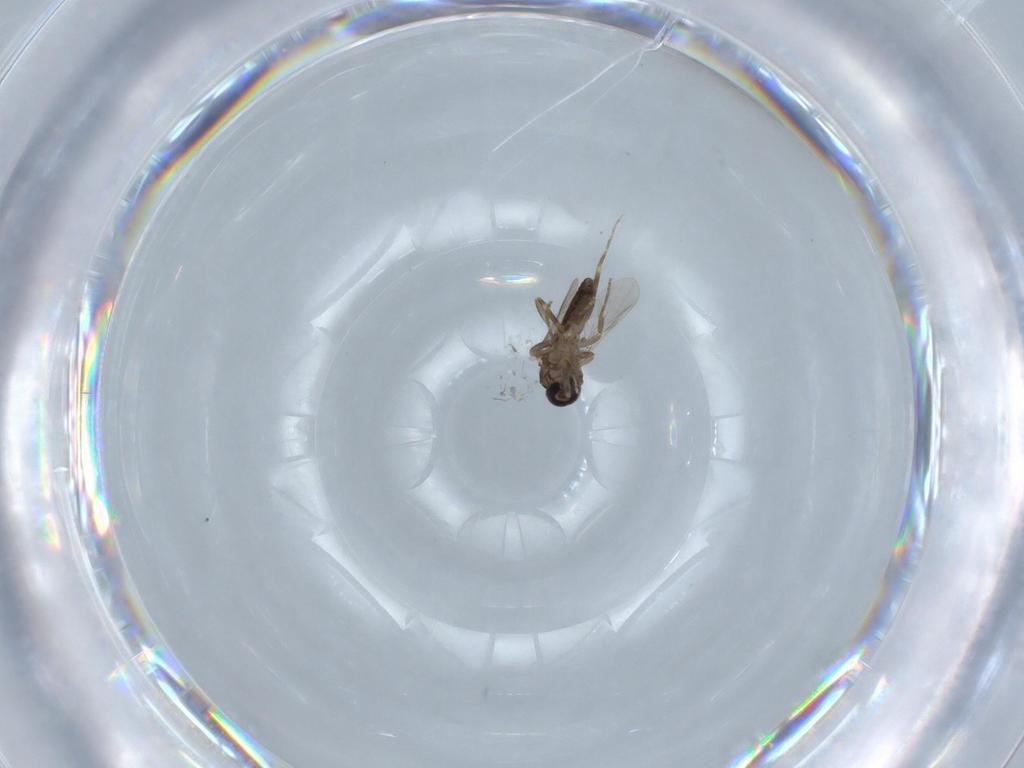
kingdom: Animalia
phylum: Arthropoda
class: Insecta
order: Diptera
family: Ceratopogonidae
